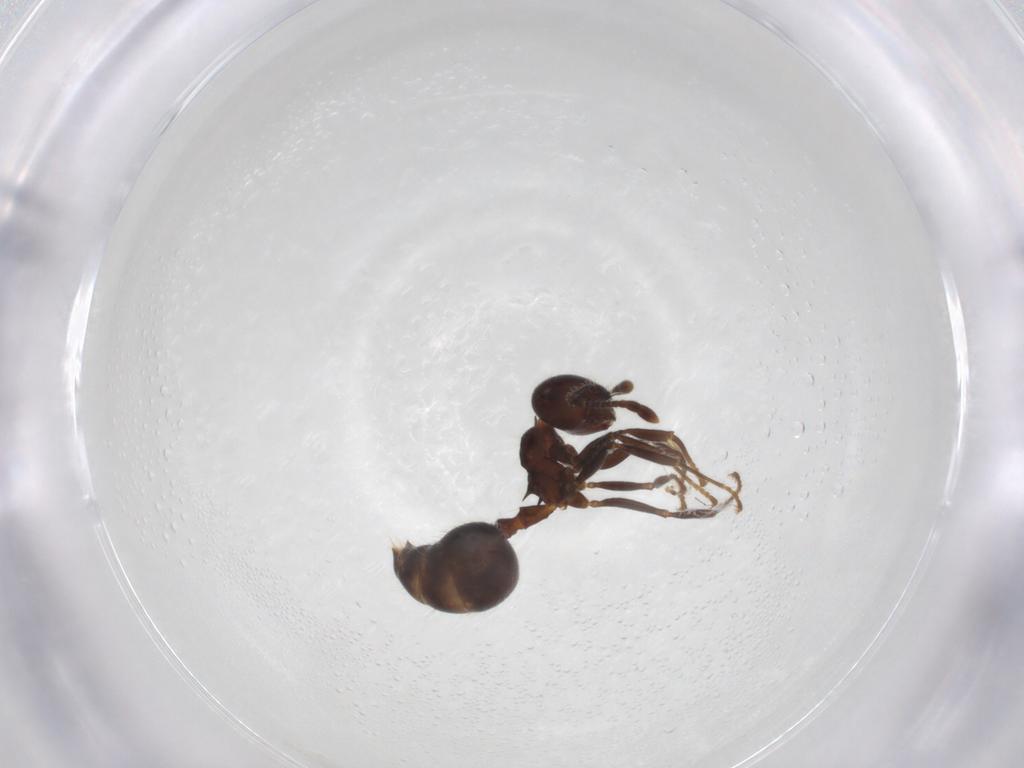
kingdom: Animalia
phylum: Arthropoda
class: Insecta
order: Hymenoptera
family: Formicidae
